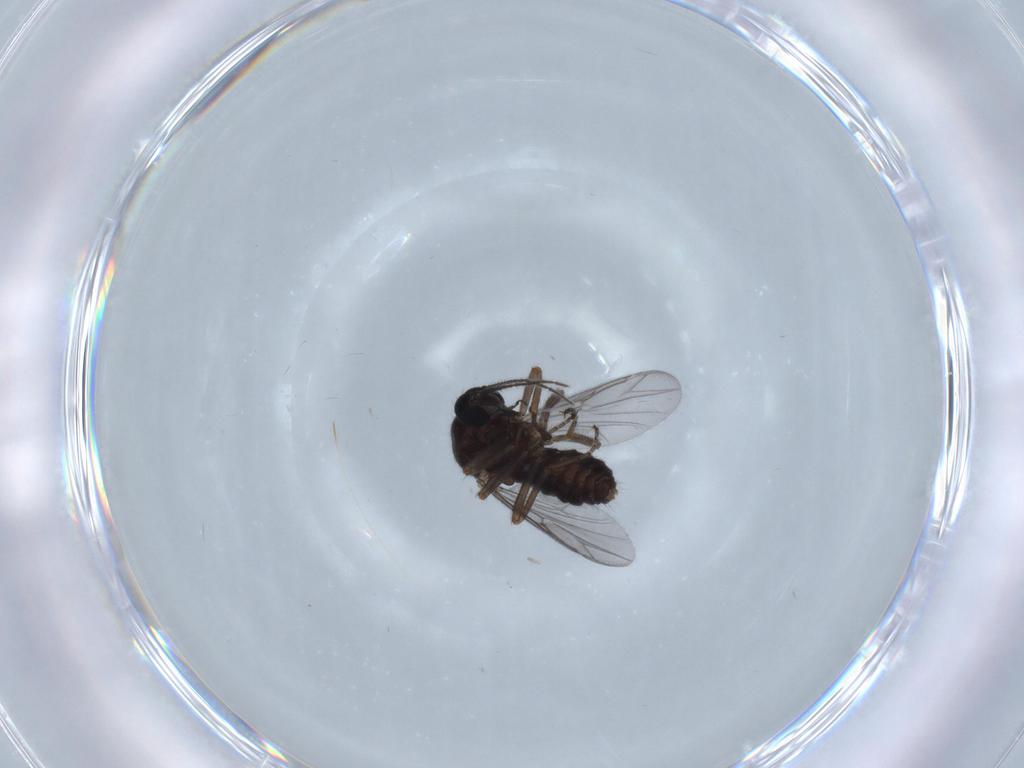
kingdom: Animalia
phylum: Arthropoda
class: Insecta
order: Diptera
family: Ceratopogonidae
